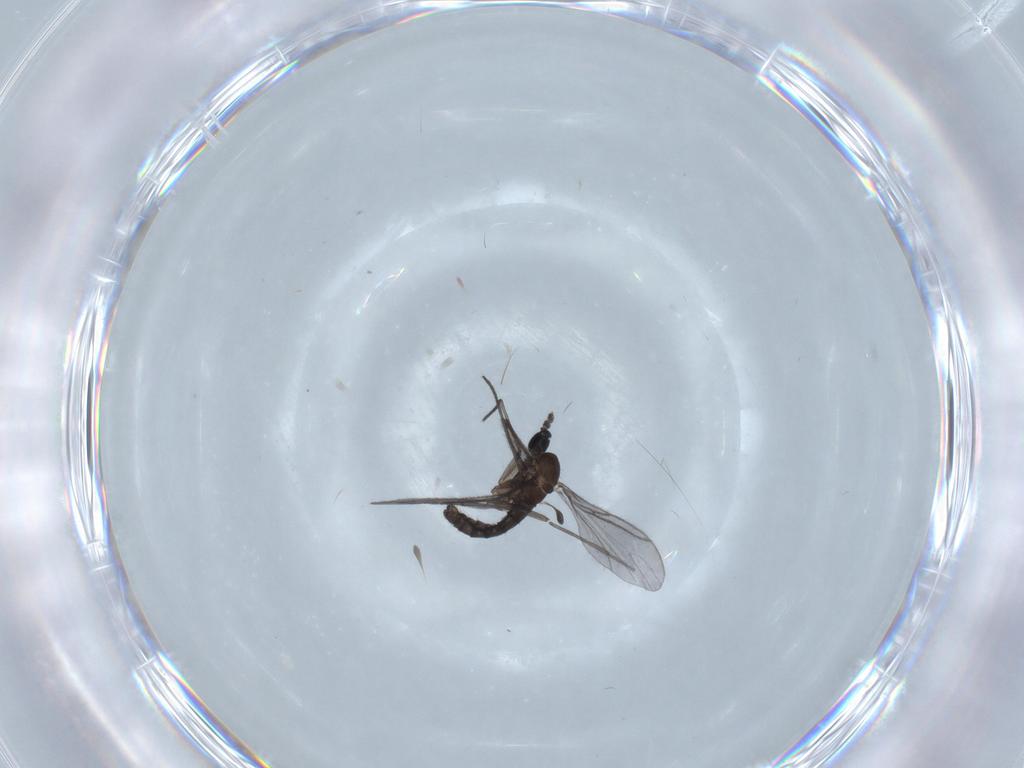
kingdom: Animalia
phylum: Arthropoda
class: Insecta
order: Diptera
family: Sciaridae
